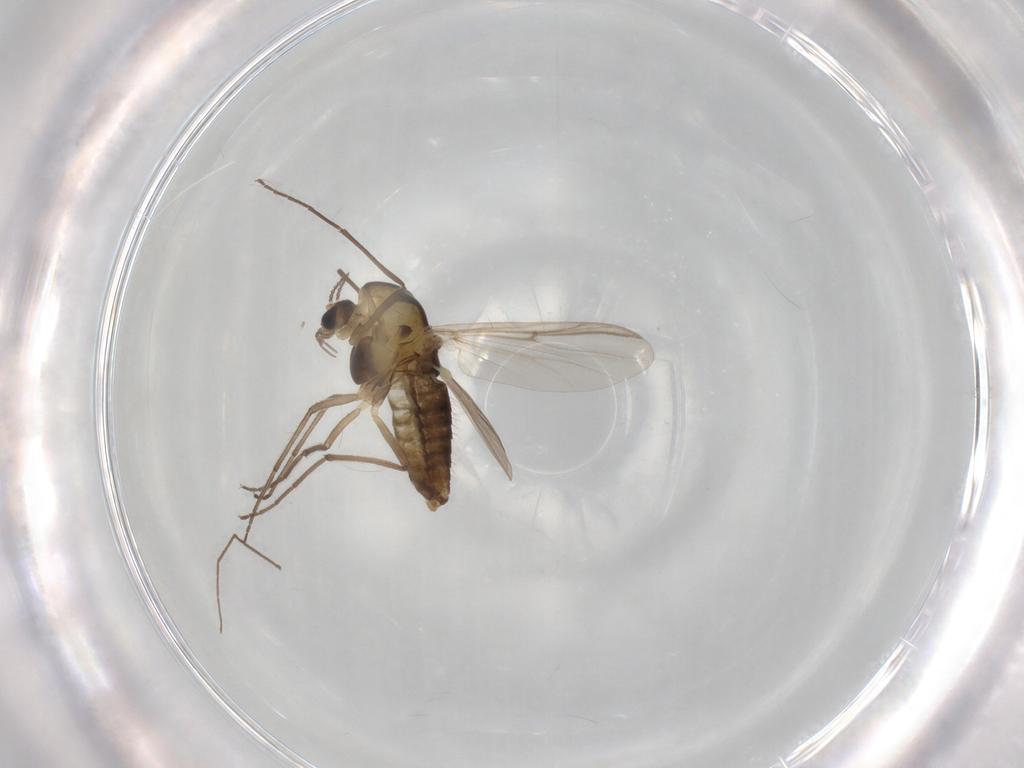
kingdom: Animalia
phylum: Arthropoda
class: Insecta
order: Diptera
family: Chironomidae
